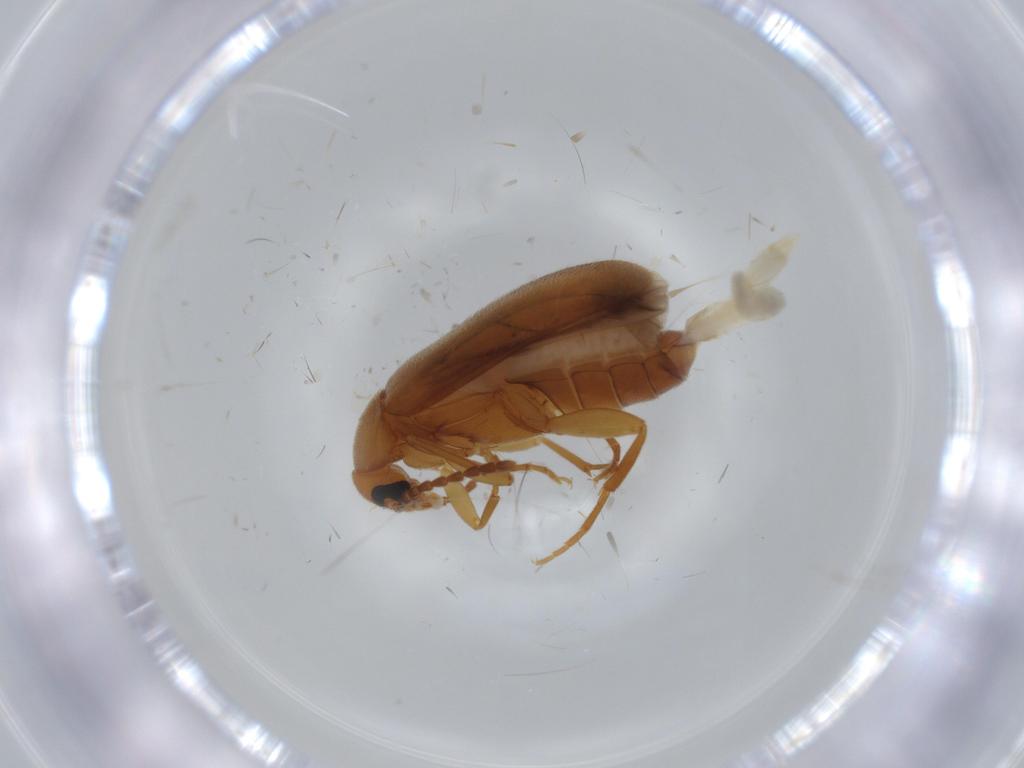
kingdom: Animalia
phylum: Arthropoda
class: Insecta
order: Coleoptera
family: Scraptiidae
